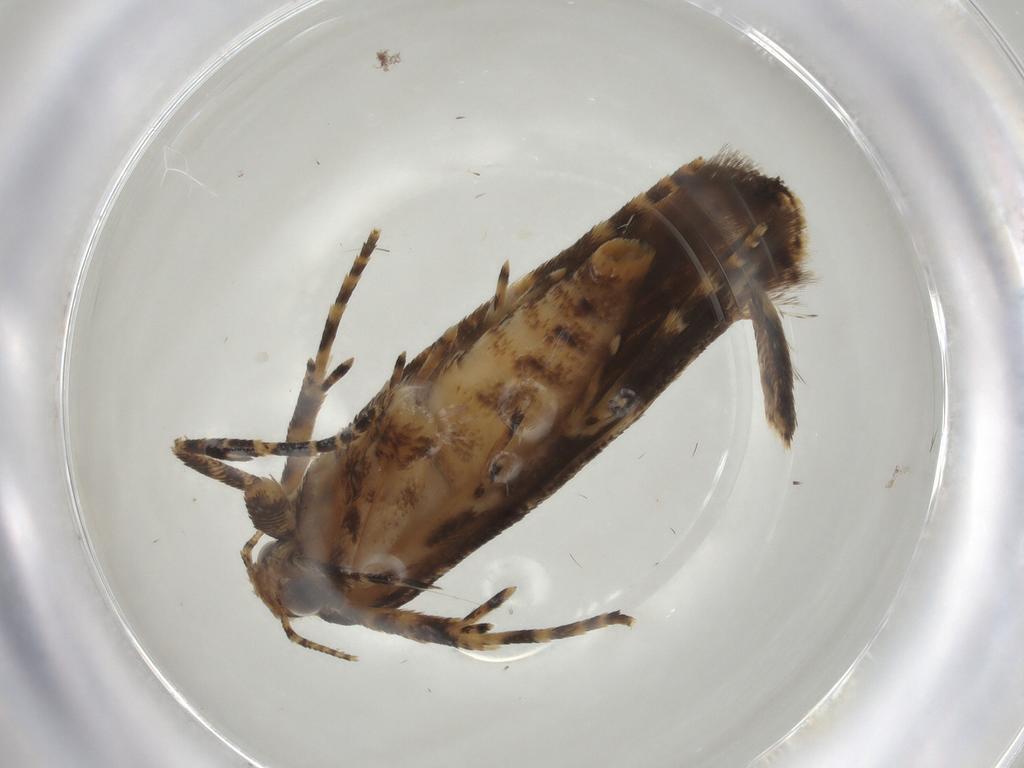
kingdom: Animalia
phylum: Arthropoda
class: Insecta
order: Lepidoptera
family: Gelechiidae
